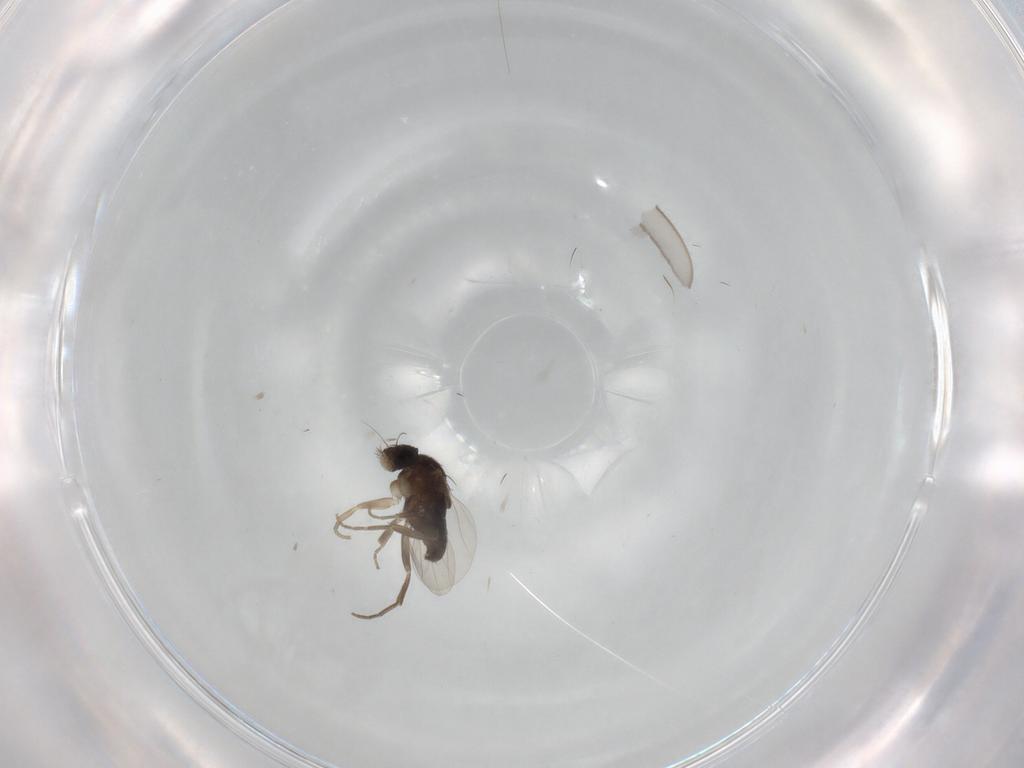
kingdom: Animalia
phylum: Arthropoda
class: Insecta
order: Diptera
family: Phoridae
